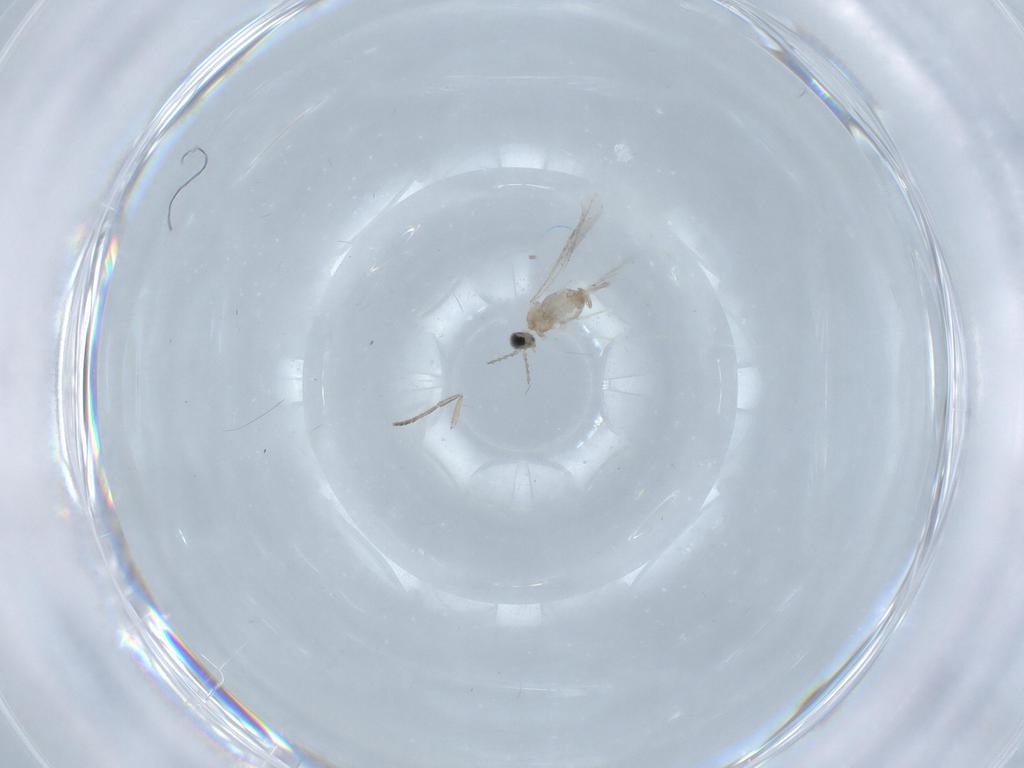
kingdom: Animalia
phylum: Arthropoda
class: Insecta
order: Diptera
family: Cecidomyiidae
